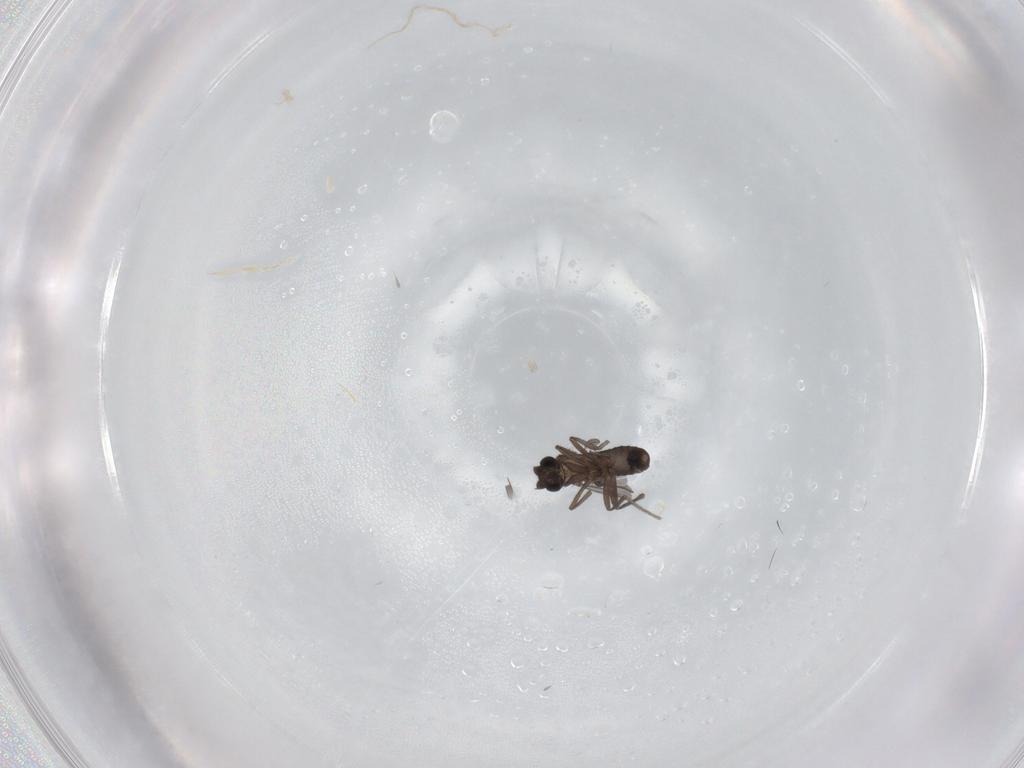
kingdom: Animalia
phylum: Arthropoda
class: Insecta
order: Diptera
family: Phoridae
